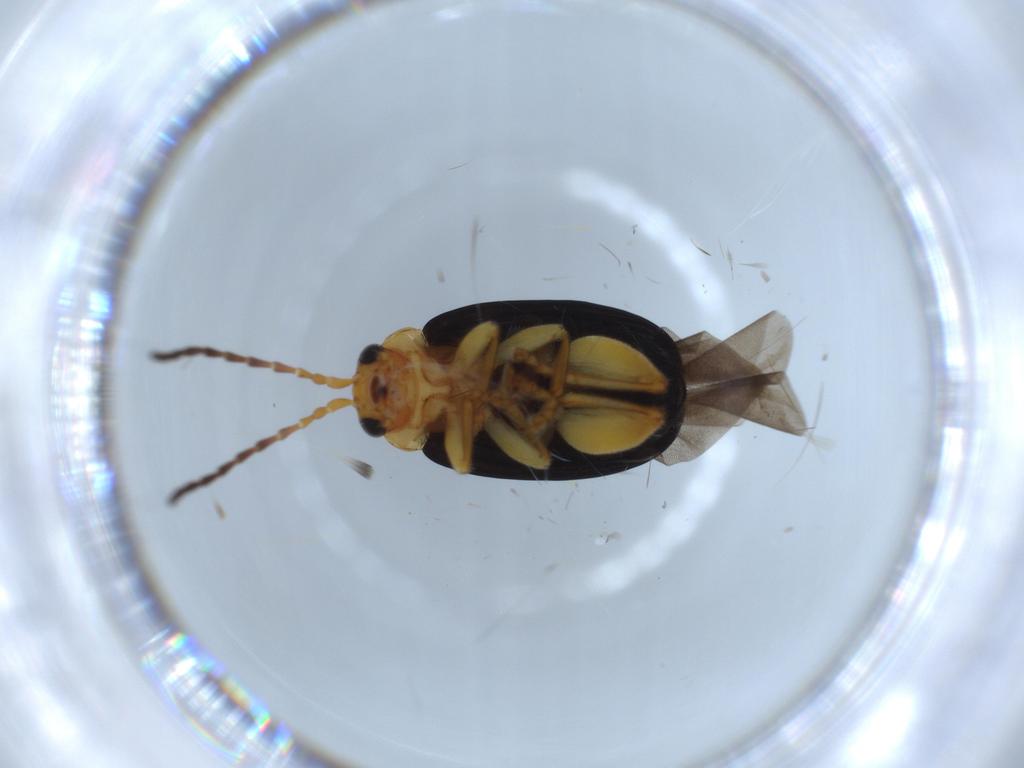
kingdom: Animalia
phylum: Arthropoda
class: Insecta
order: Coleoptera
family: Chrysomelidae
